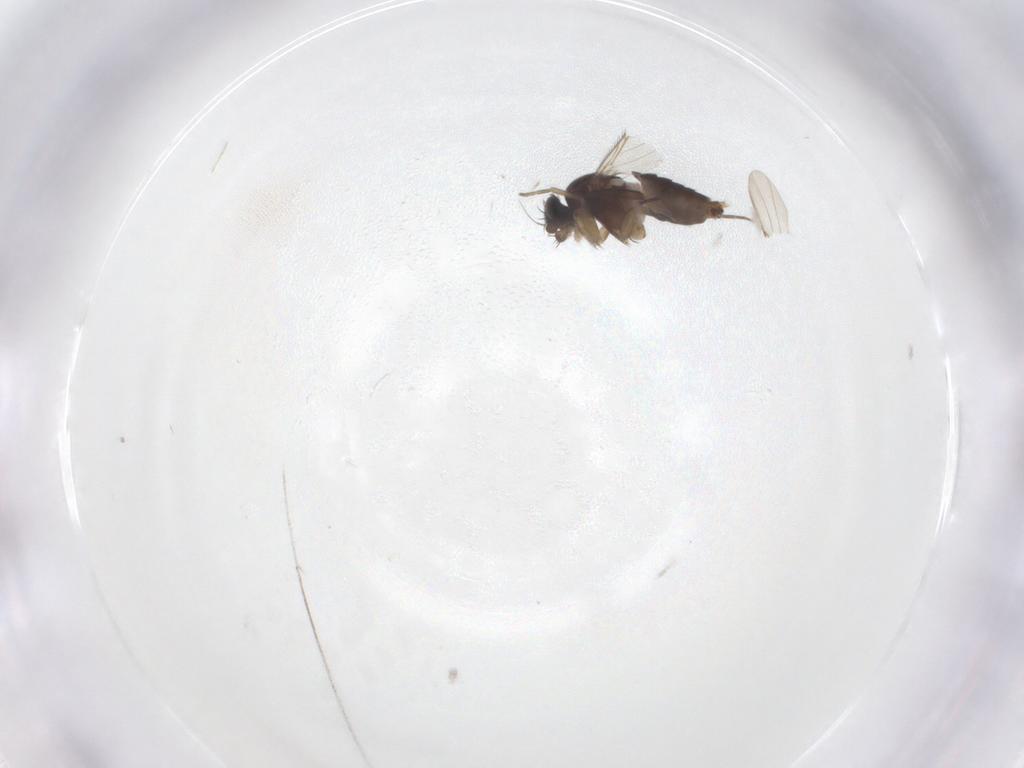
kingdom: Animalia
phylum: Arthropoda
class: Insecta
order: Diptera
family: Phoridae
